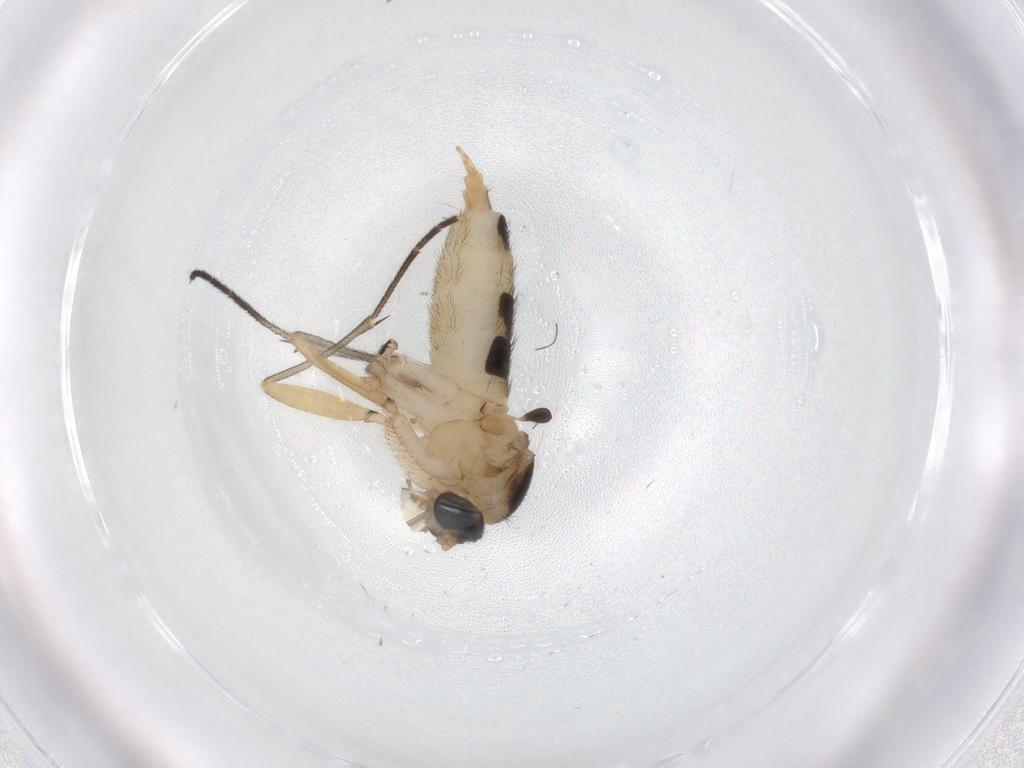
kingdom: Animalia
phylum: Arthropoda
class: Insecta
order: Diptera
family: Sciaridae
